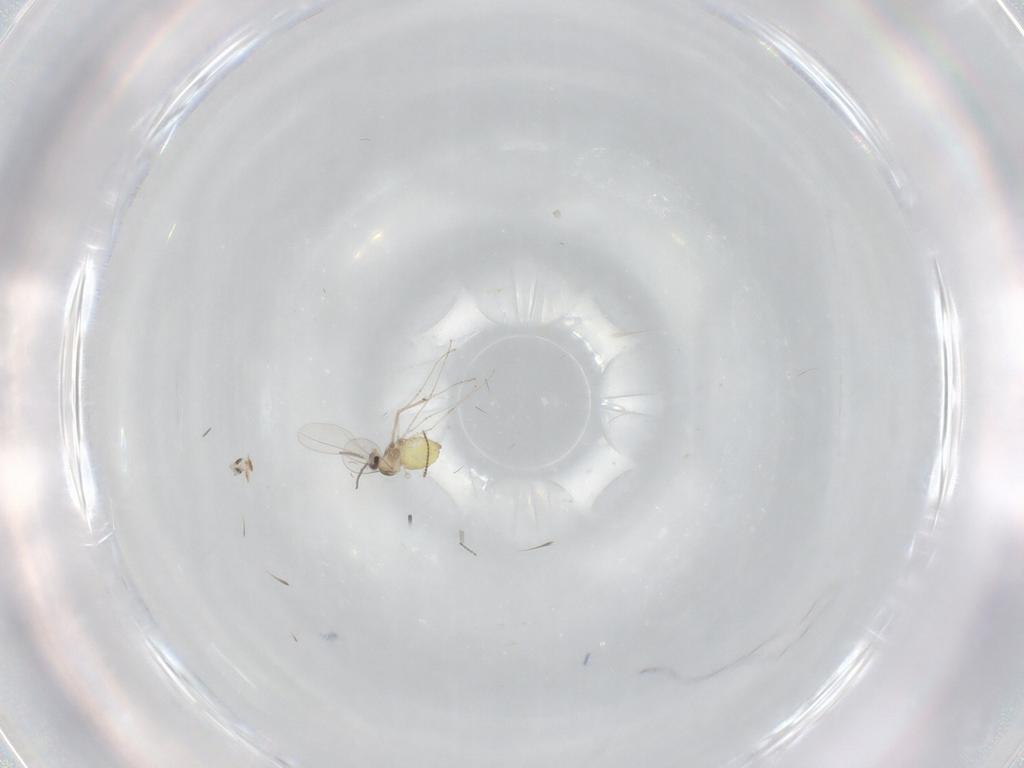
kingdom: Animalia
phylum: Arthropoda
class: Insecta
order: Diptera
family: Cecidomyiidae
